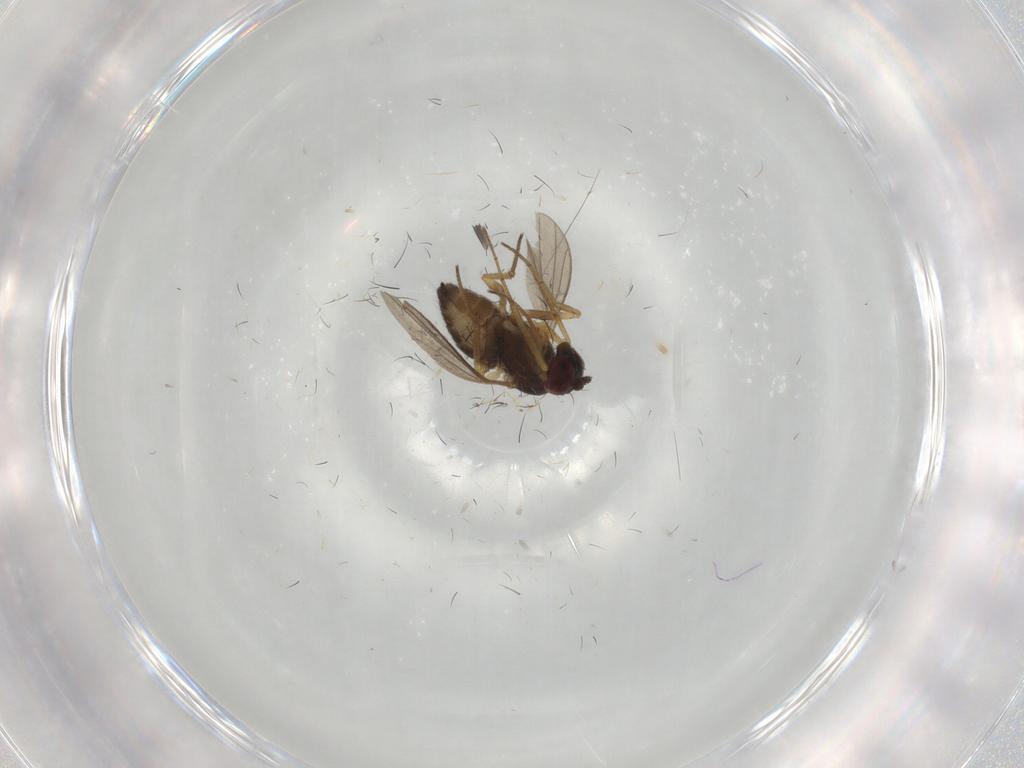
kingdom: Animalia
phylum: Arthropoda
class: Insecta
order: Diptera
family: Dolichopodidae
